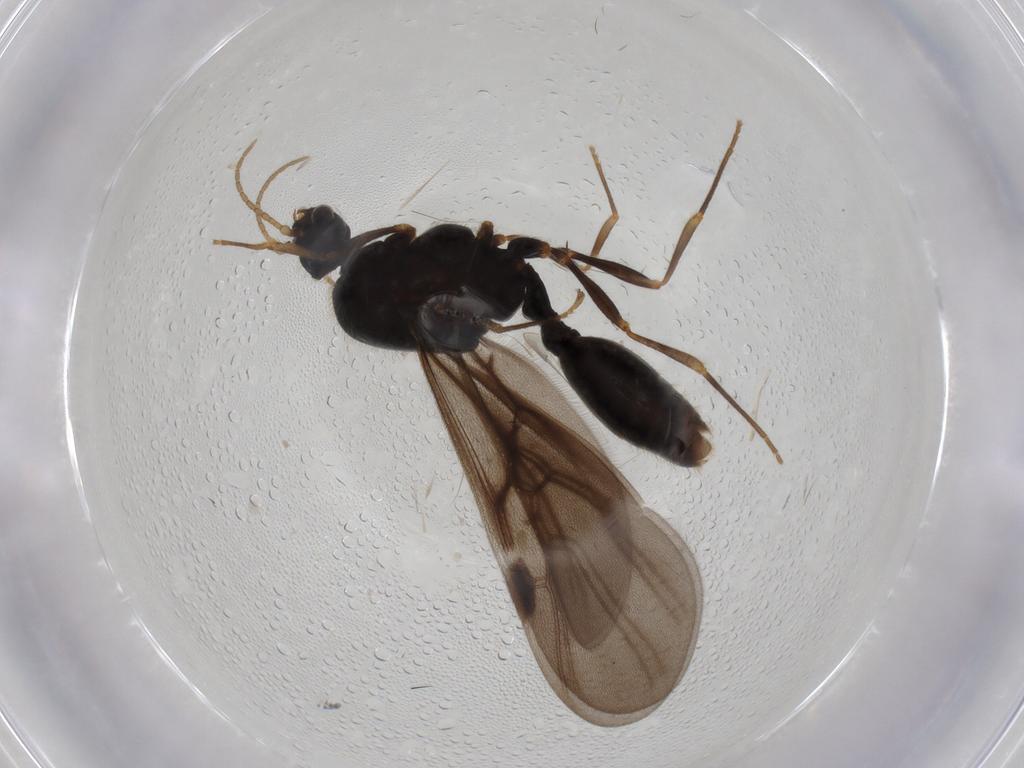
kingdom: Animalia
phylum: Arthropoda
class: Insecta
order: Hymenoptera
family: Formicidae
